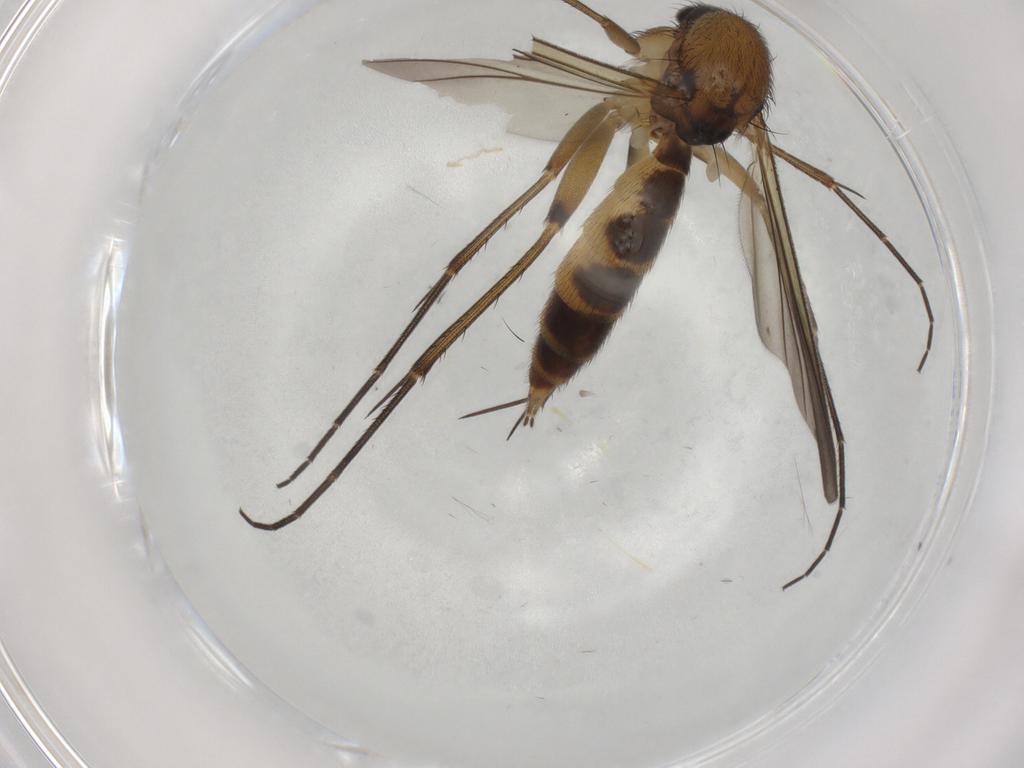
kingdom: Animalia
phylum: Arthropoda
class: Insecta
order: Diptera
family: Mycetophilidae
